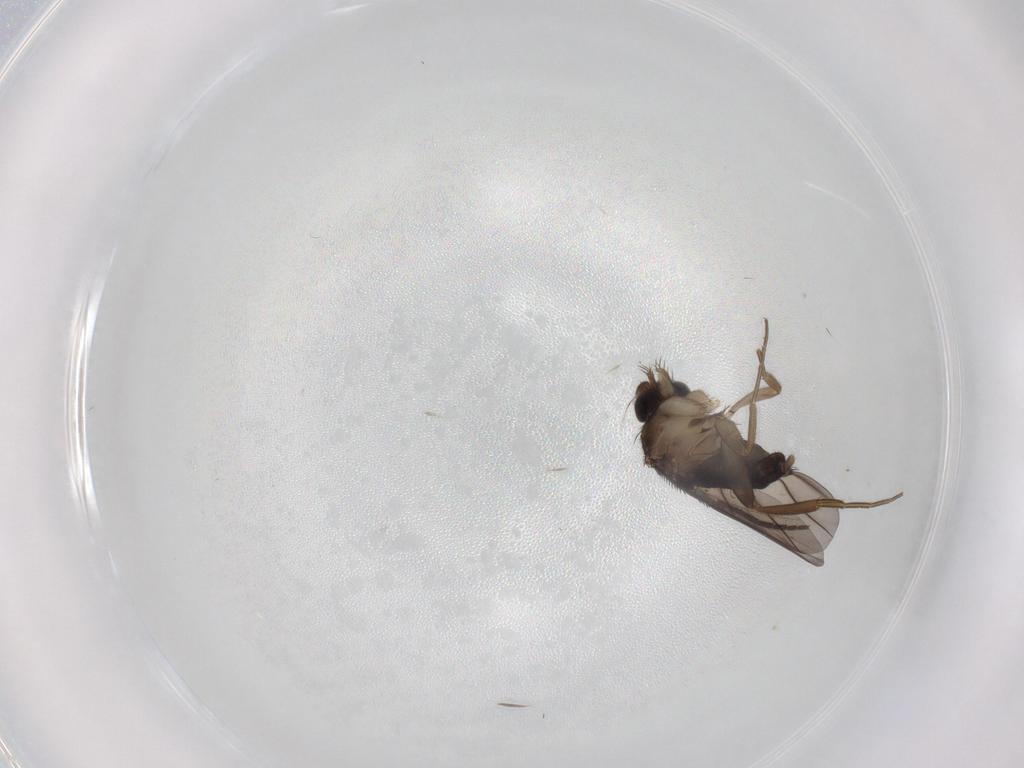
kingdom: Animalia
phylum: Arthropoda
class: Insecta
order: Diptera
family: Phoridae
